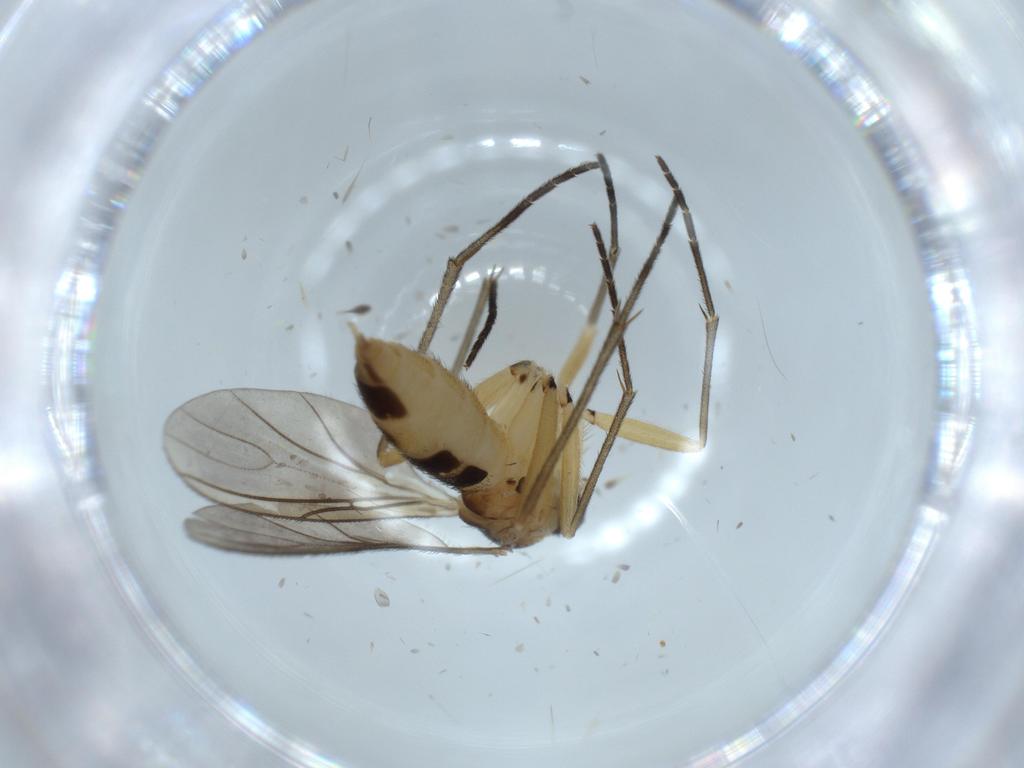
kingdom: Animalia
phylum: Arthropoda
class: Insecta
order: Diptera
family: Sciaridae
